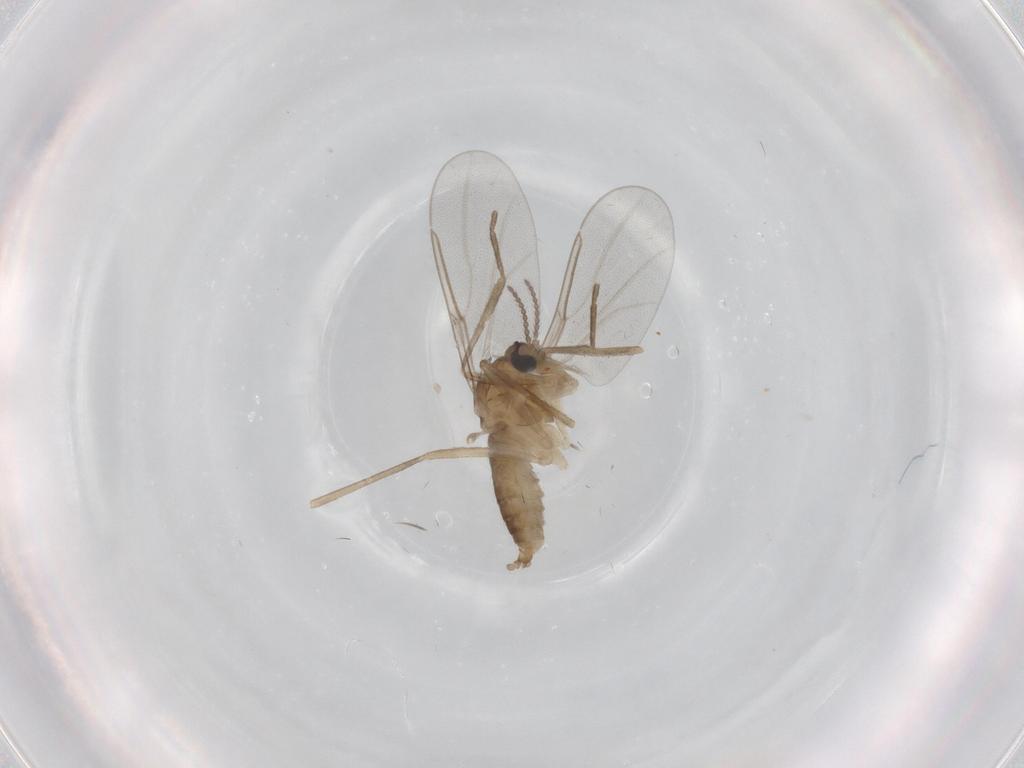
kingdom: Animalia
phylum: Arthropoda
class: Insecta
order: Diptera
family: Cecidomyiidae
